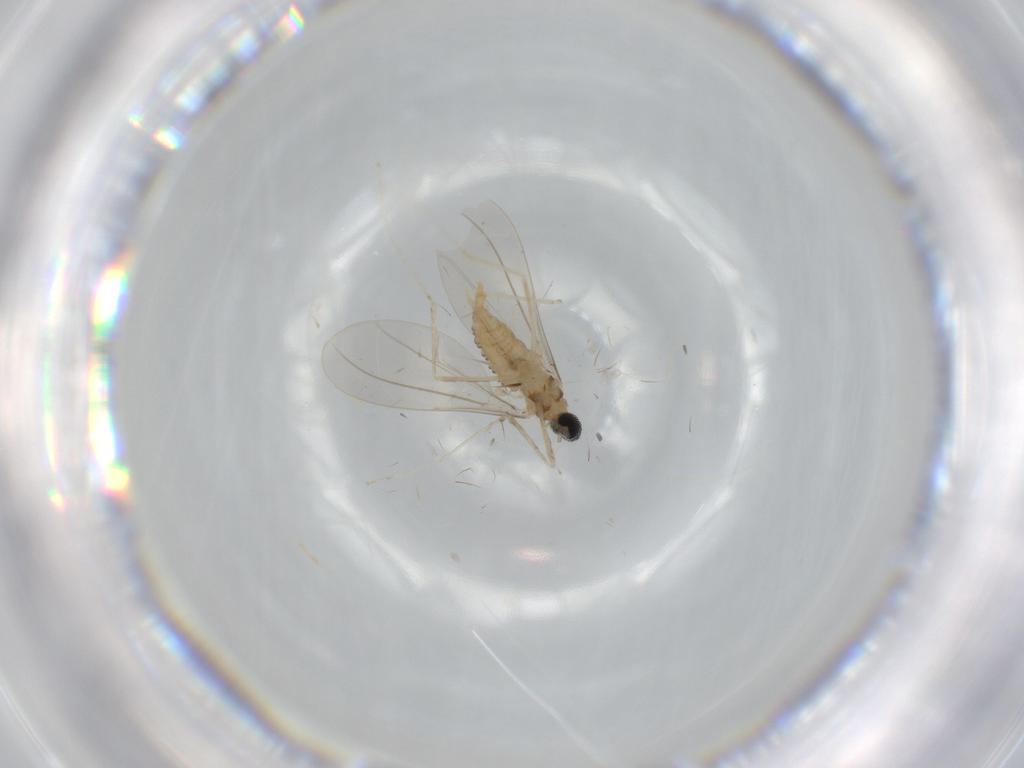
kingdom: Animalia
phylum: Arthropoda
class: Insecta
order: Diptera
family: Cecidomyiidae
